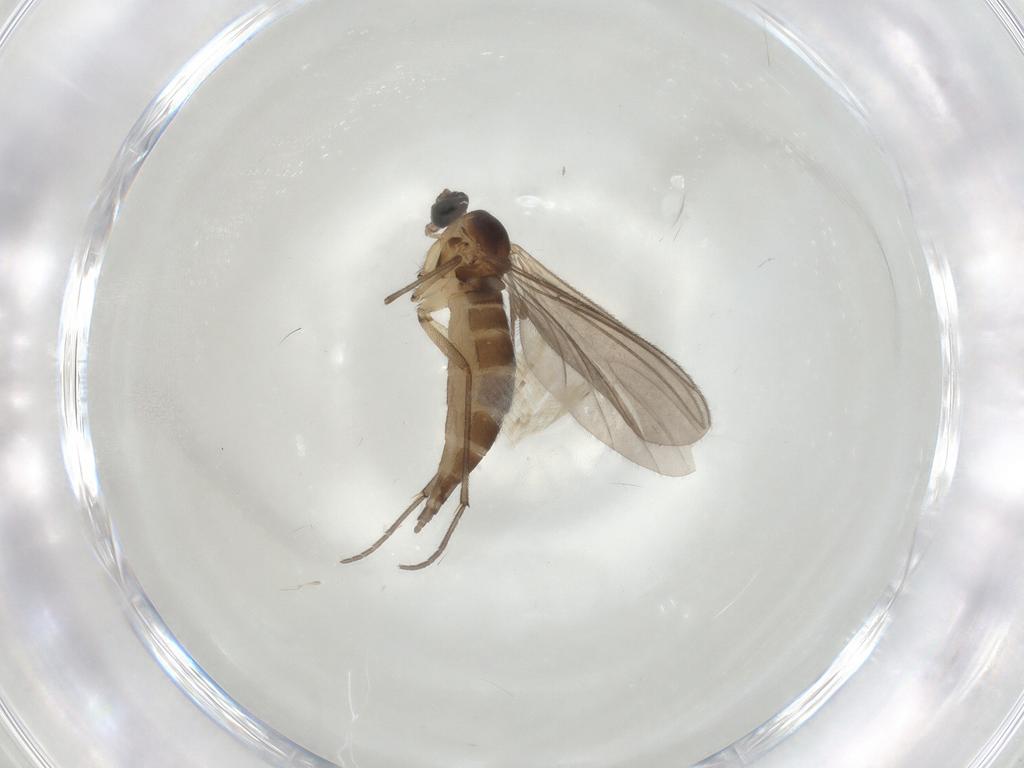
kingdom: Animalia
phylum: Arthropoda
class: Insecta
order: Diptera
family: Sciaridae
